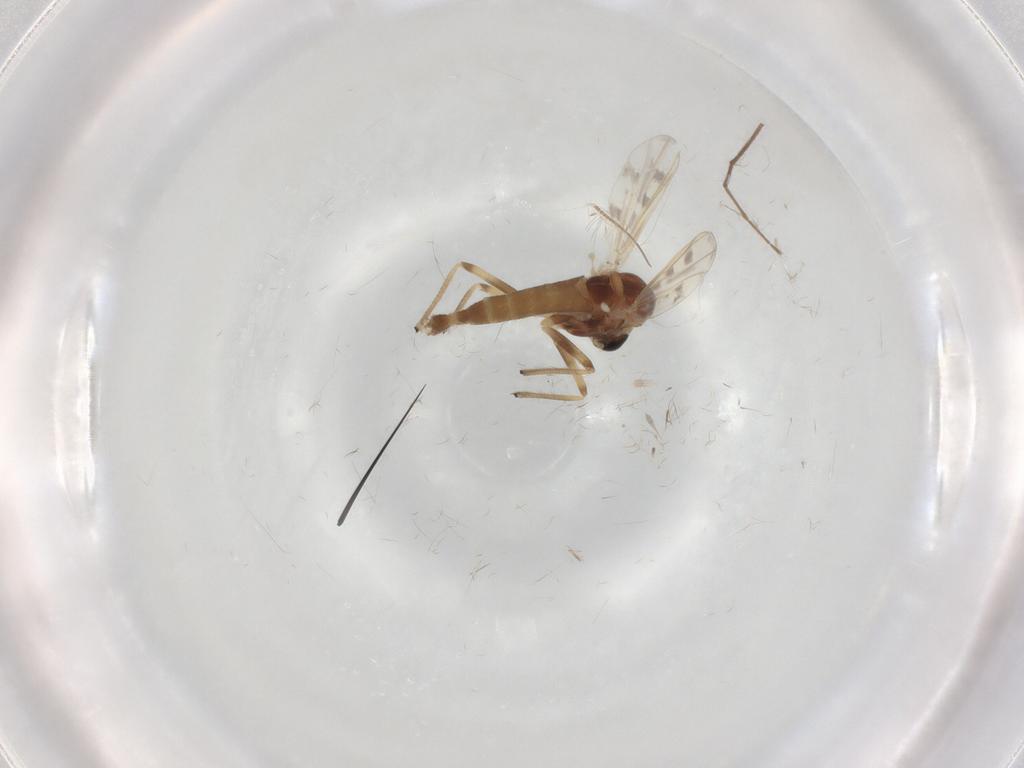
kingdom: Animalia
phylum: Arthropoda
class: Insecta
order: Diptera
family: Chironomidae
